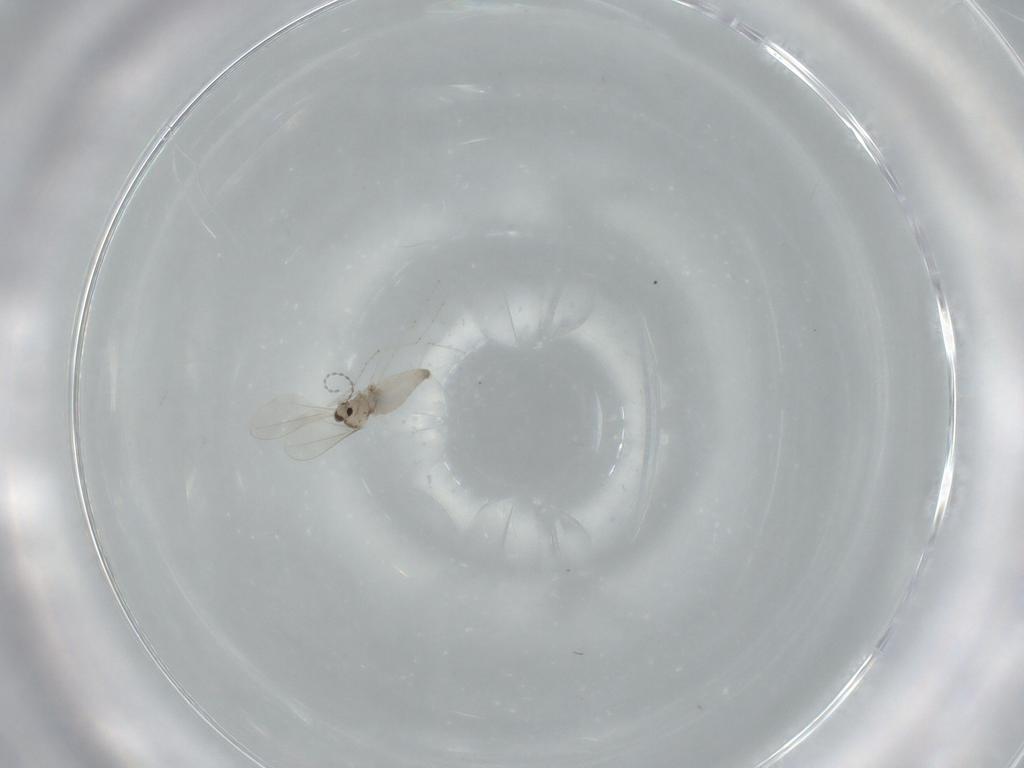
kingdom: Animalia
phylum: Arthropoda
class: Insecta
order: Diptera
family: Cecidomyiidae
